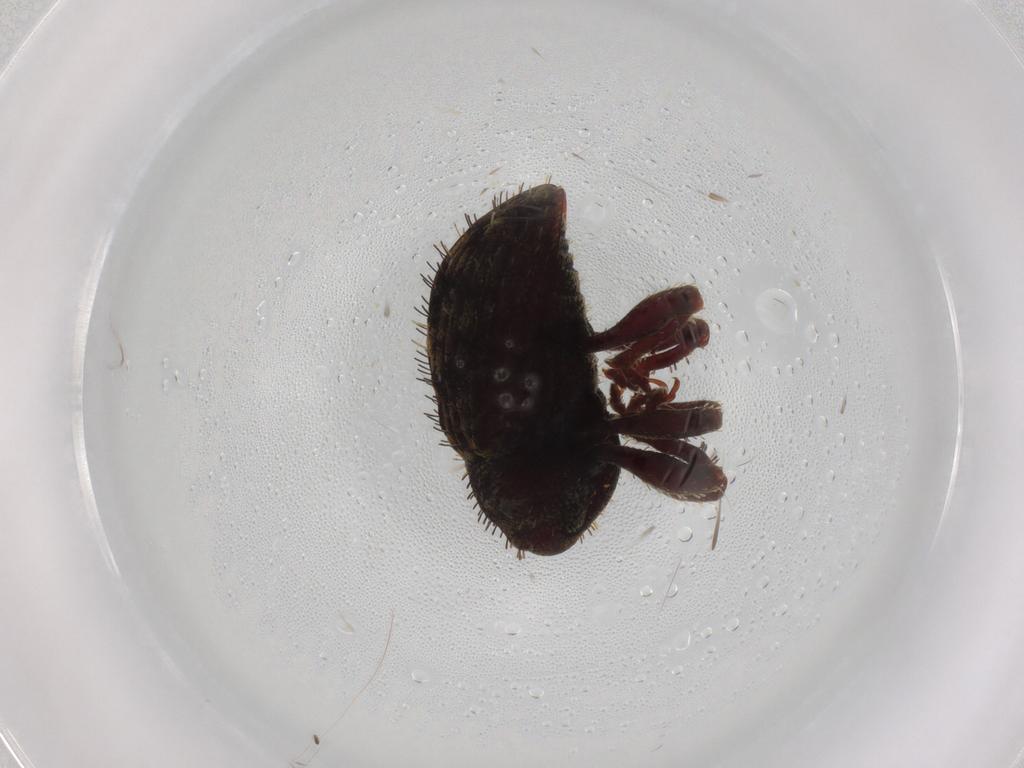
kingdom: Animalia
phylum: Arthropoda
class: Insecta
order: Coleoptera
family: Curculionidae
